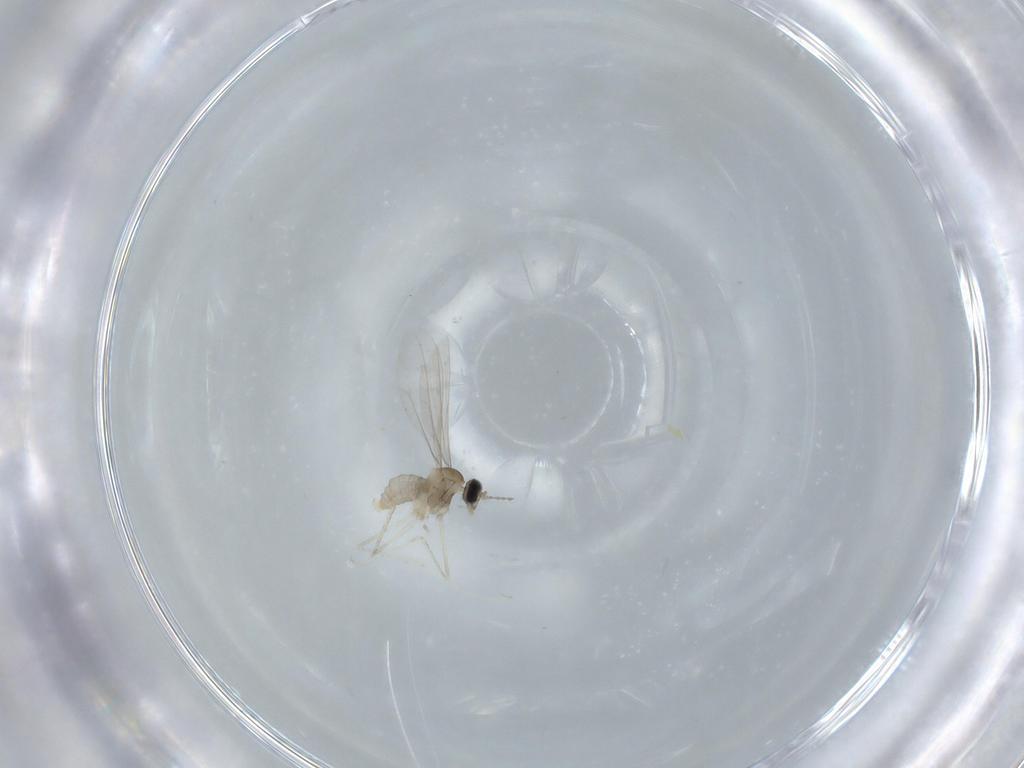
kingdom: Animalia
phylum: Arthropoda
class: Insecta
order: Diptera
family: Cecidomyiidae
